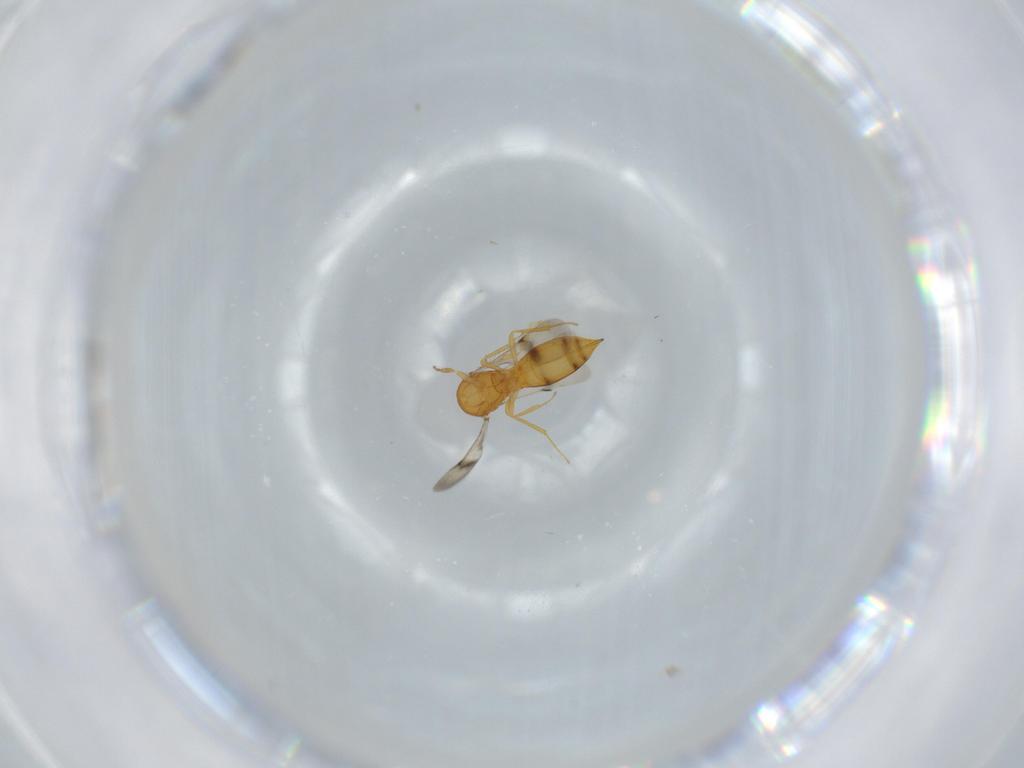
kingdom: Animalia
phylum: Arthropoda
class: Insecta
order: Hymenoptera
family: Scelionidae
